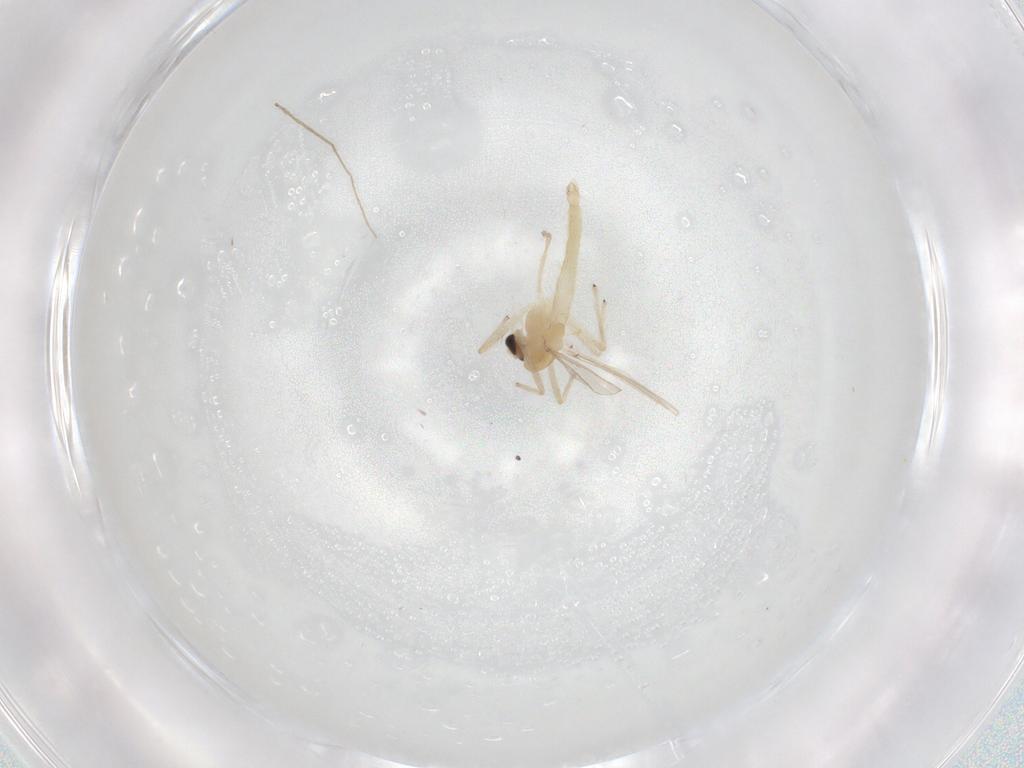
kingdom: Animalia
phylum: Arthropoda
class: Insecta
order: Diptera
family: Chironomidae
